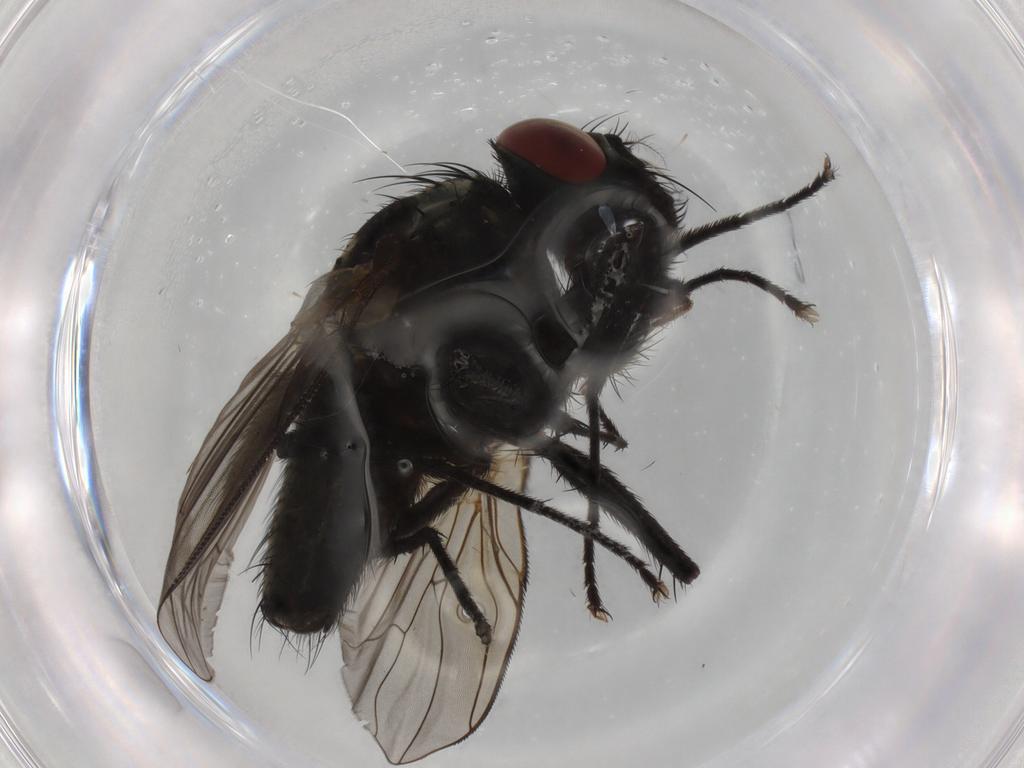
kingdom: Animalia
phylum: Arthropoda
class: Insecta
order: Diptera
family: Muscidae
